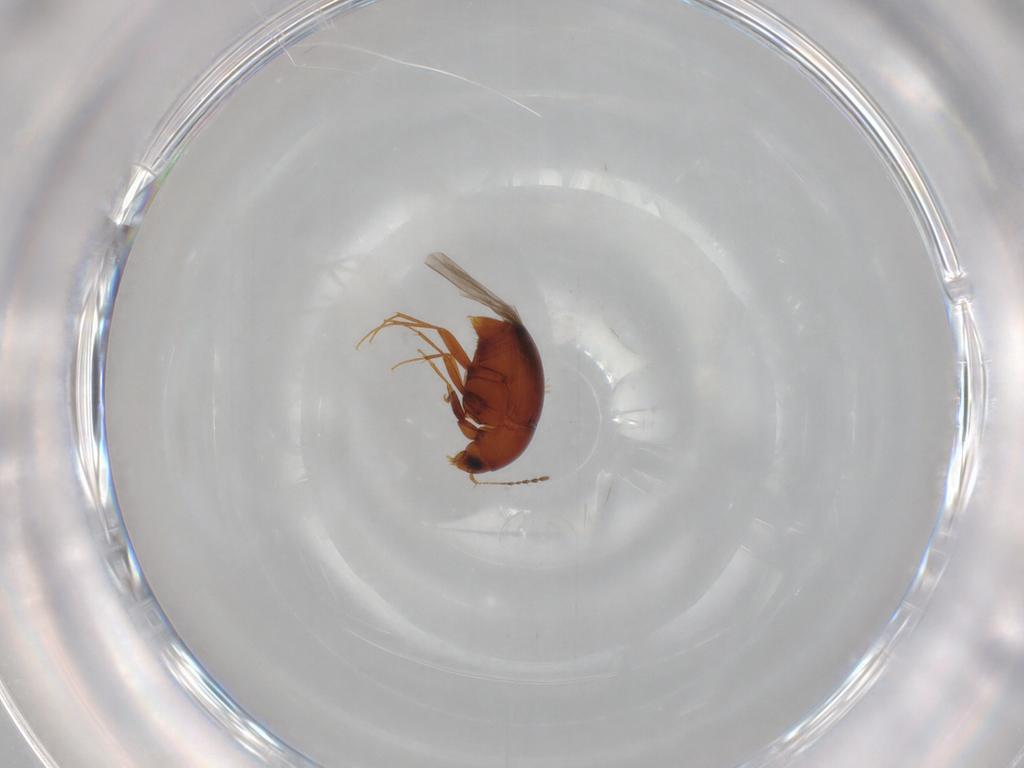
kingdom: Animalia
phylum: Arthropoda
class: Insecta
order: Coleoptera
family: Staphylinidae
